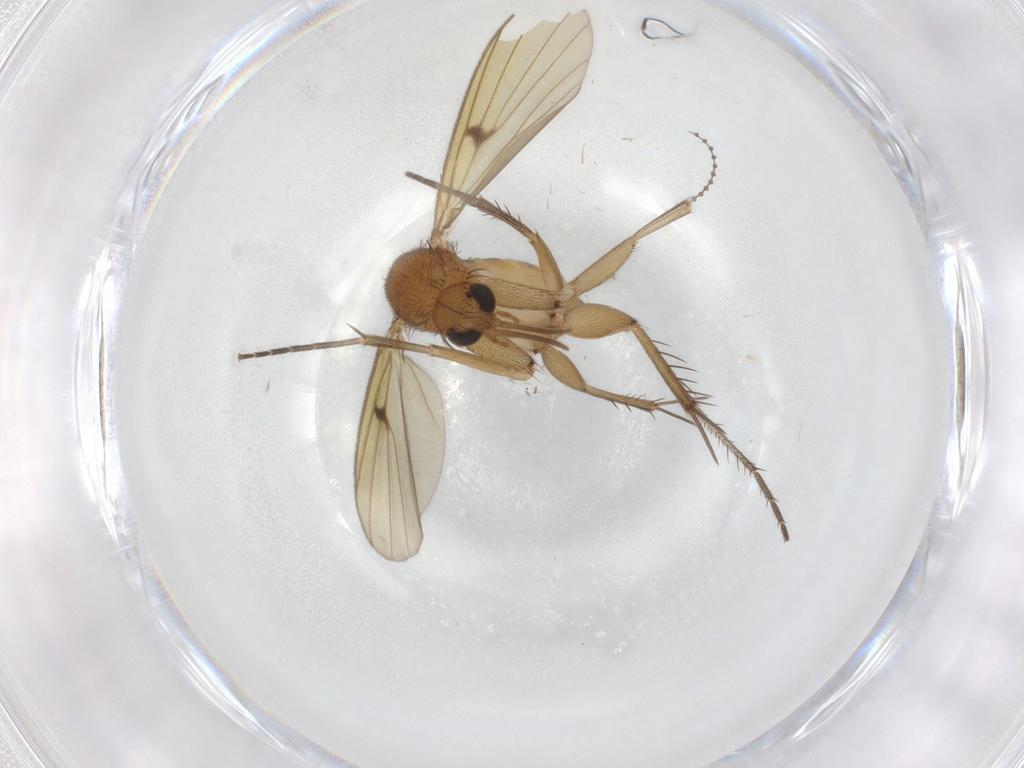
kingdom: Animalia
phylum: Arthropoda
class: Insecta
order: Diptera
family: Mycetophilidae
